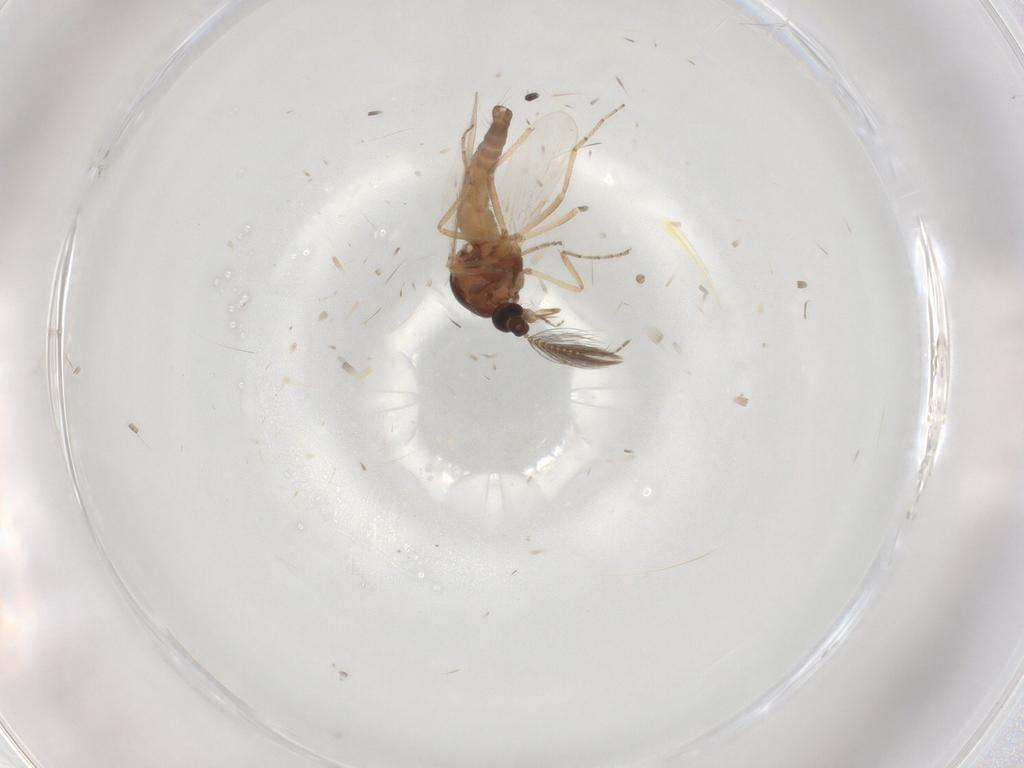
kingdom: Animalia
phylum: Arthropoda
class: Insecta
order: Diptera
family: Ceratopogonidae
